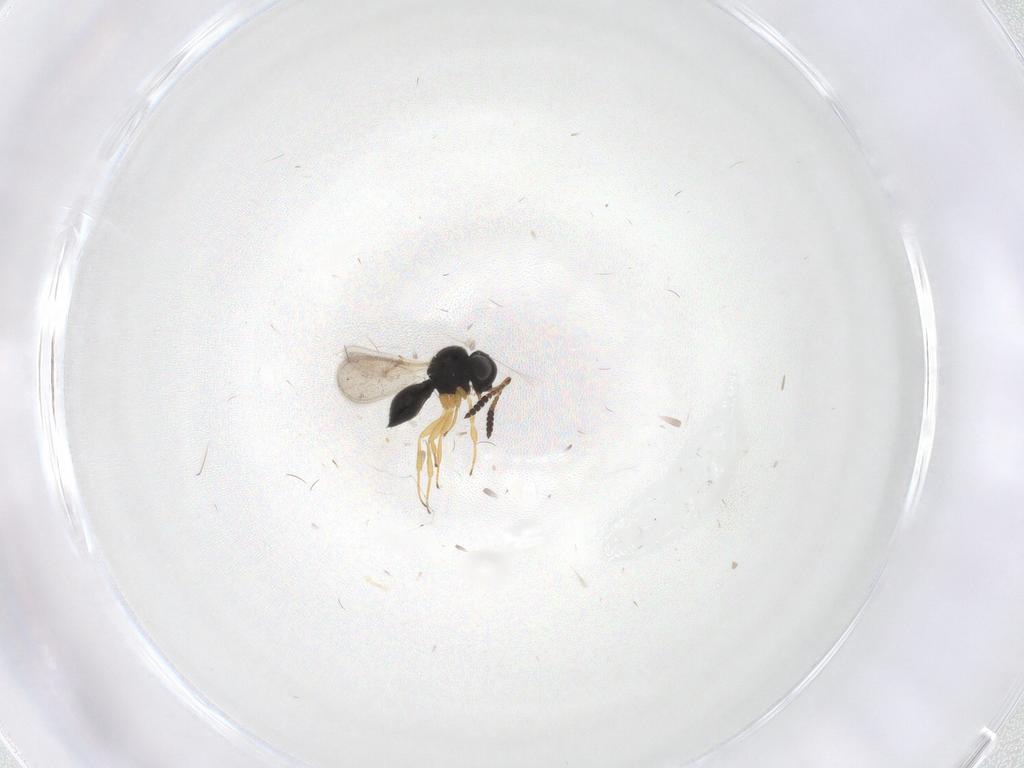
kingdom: Animalia
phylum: Arthropoda
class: Insecta
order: Hymenoptera
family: Scelionidae
